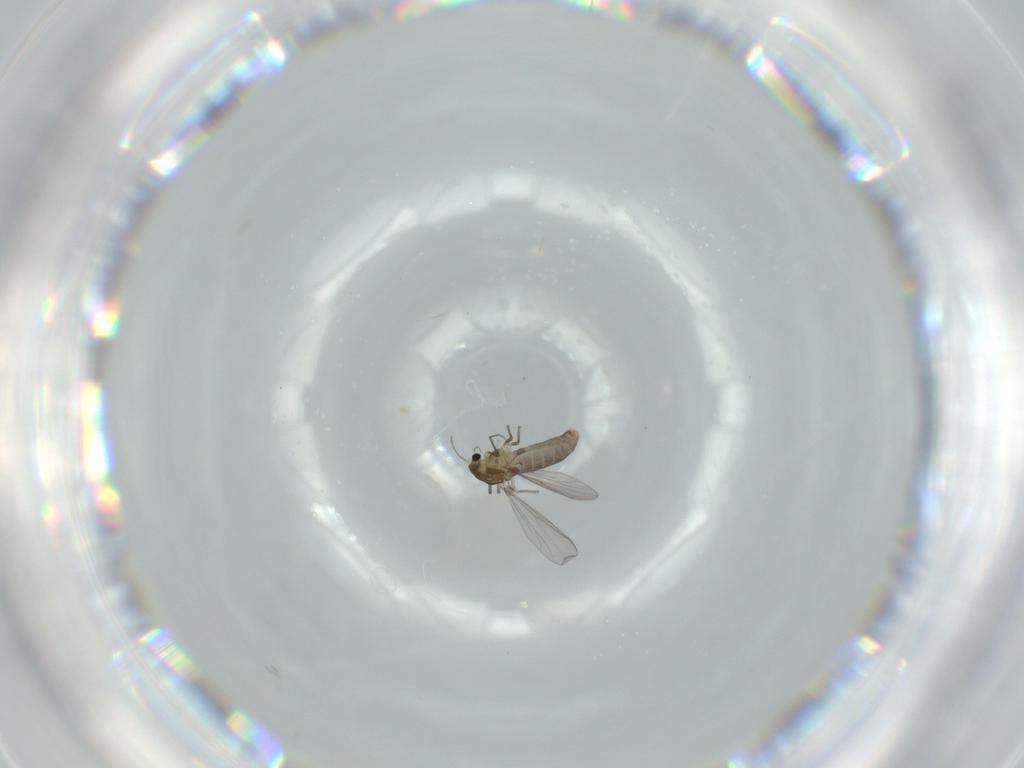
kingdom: Animalia
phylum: Arthropoda
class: Insecta
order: Diptera
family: Chironomidae
